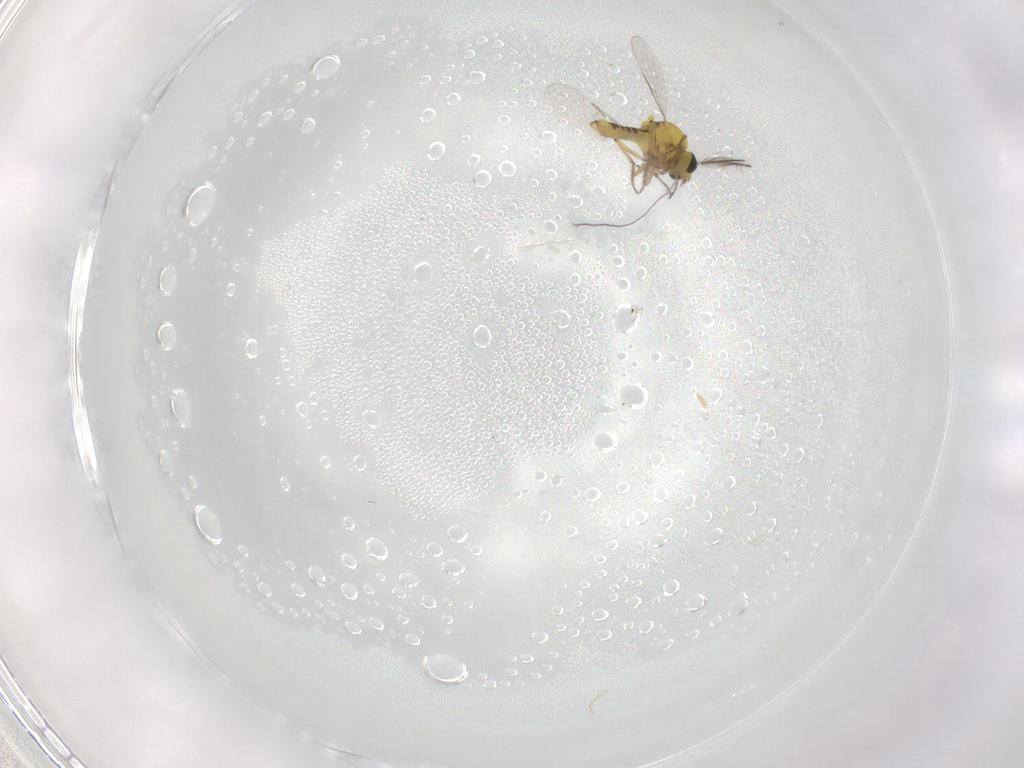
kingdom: Animalia
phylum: Arthropoda
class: Insecta
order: Diptera
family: Ceratopogonidae
